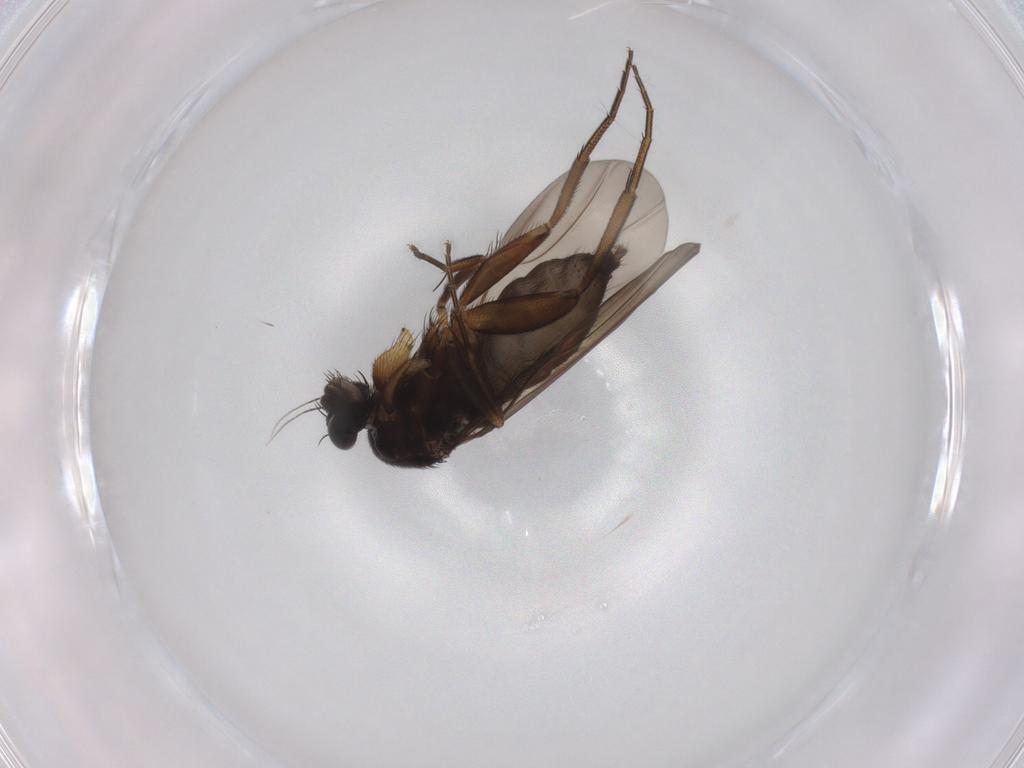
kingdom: Animalia
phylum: Arthropoda
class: Insecta
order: Diptera
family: Phoridae
